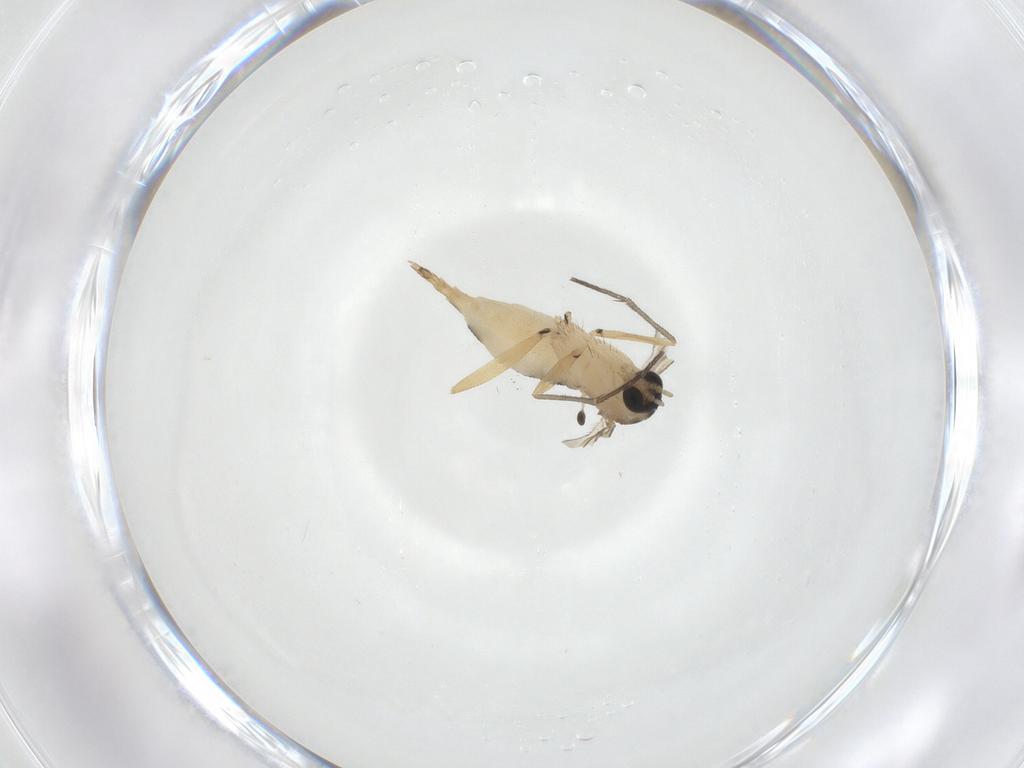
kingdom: Animalia
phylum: Arthropoda
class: Insecta
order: Diptera
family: Sciaridae
